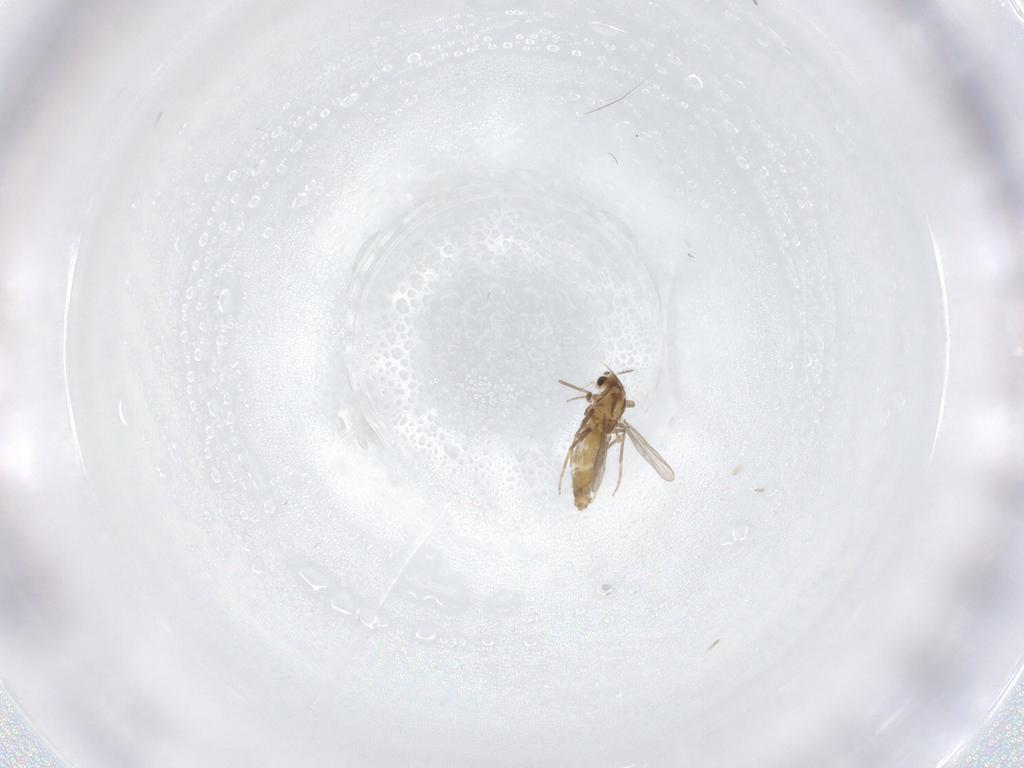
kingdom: Animalia
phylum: Arthropoda
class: Insecta
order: Diptera
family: Chironomidae
